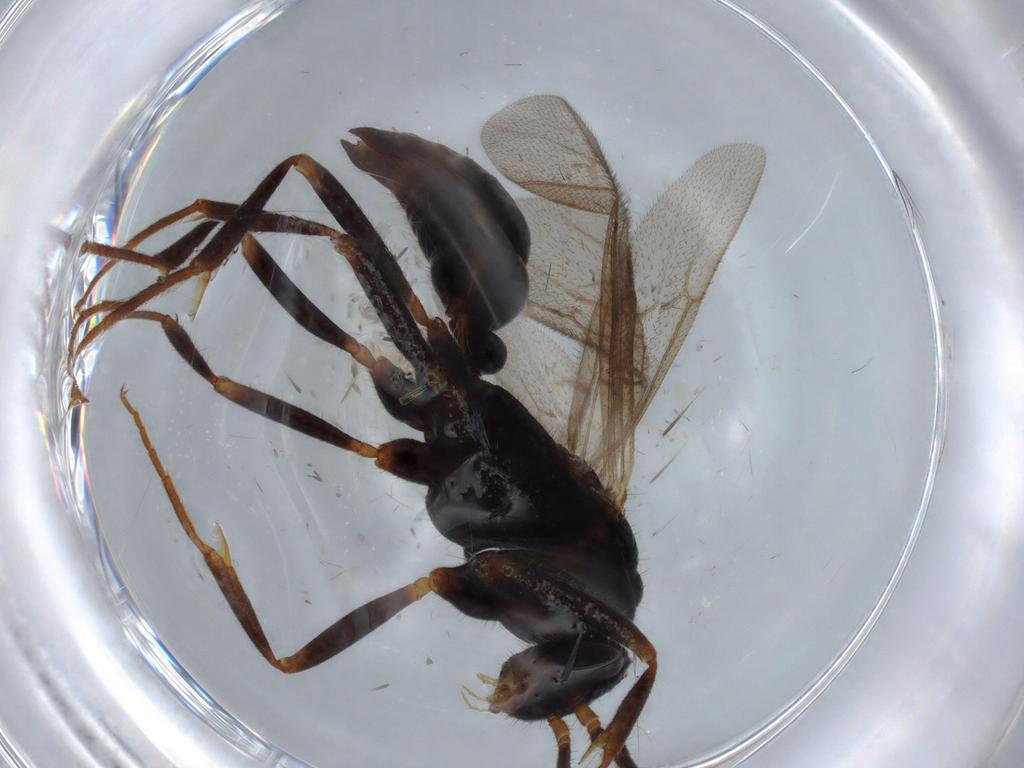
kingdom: Animalia
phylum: Arthropoda
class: Insecta
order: Hymenoptera
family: Formicidae
